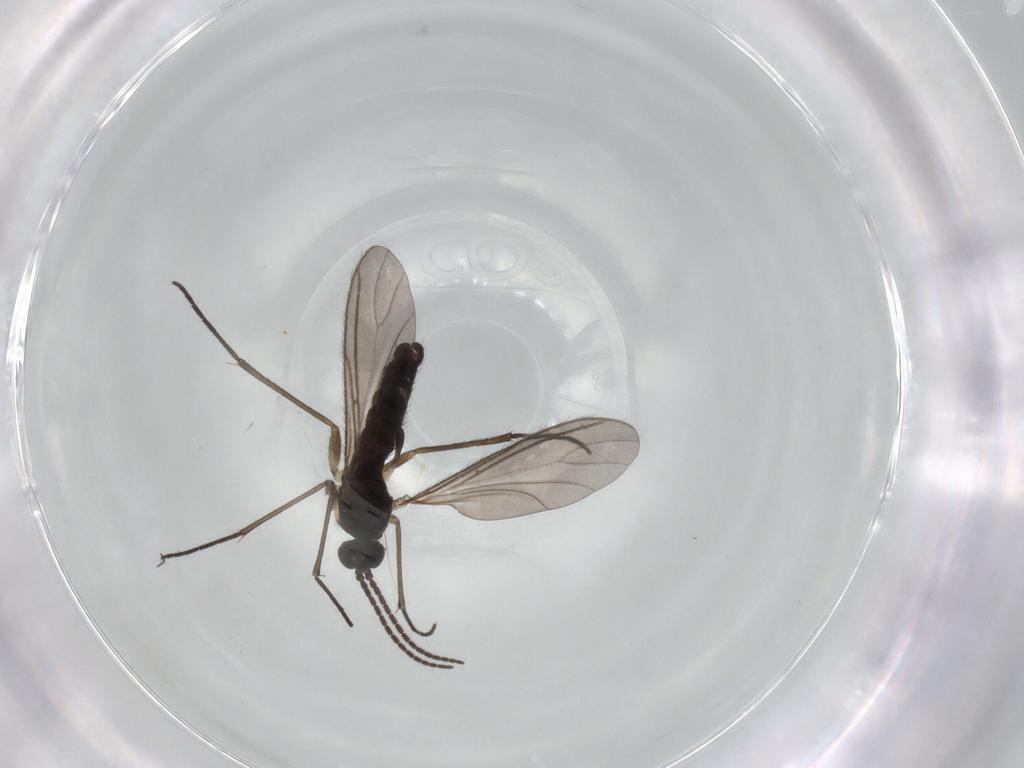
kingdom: Animalia
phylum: Arthropoda
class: Insecta
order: Diptera
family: Sciaridae
